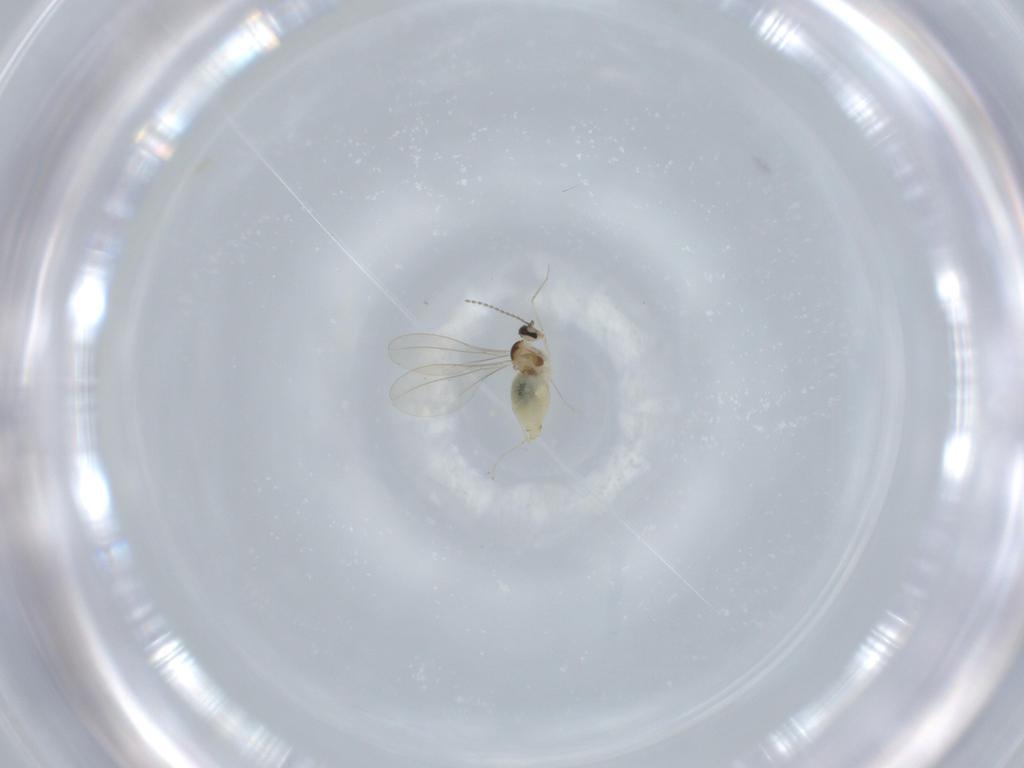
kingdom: Animalia
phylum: Arthropoda
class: Insecta
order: Diptera
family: Cecidomyiidae
